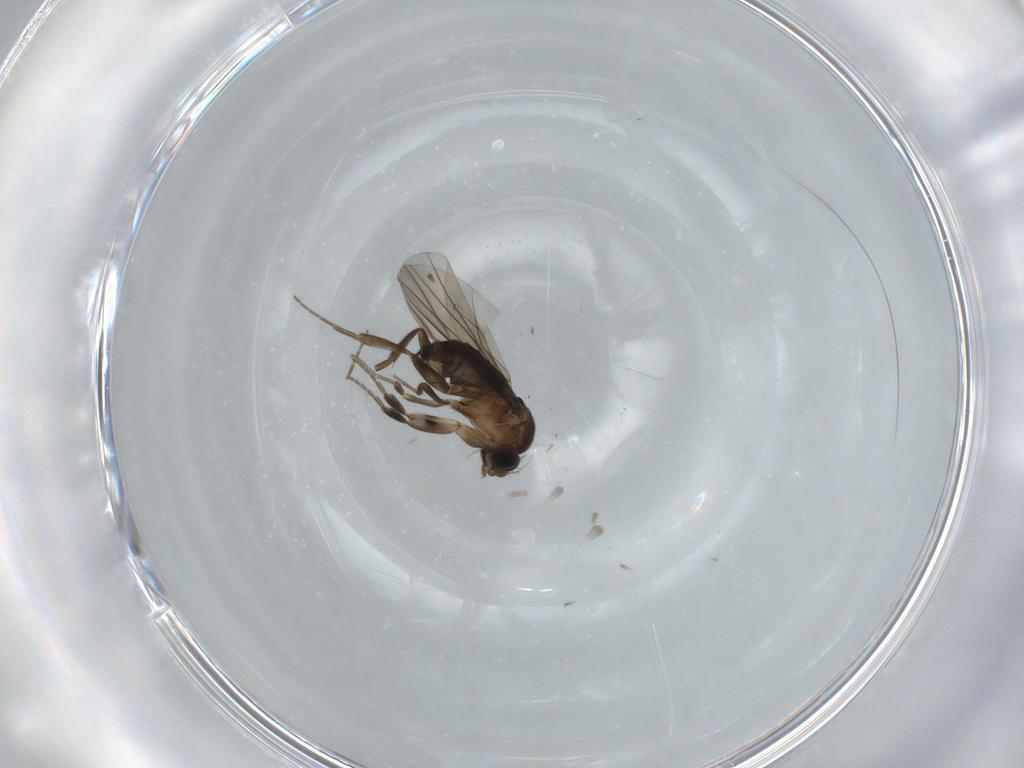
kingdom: Animalia
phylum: Arthropoda
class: Insecta
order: Diptera
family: Phoridae
